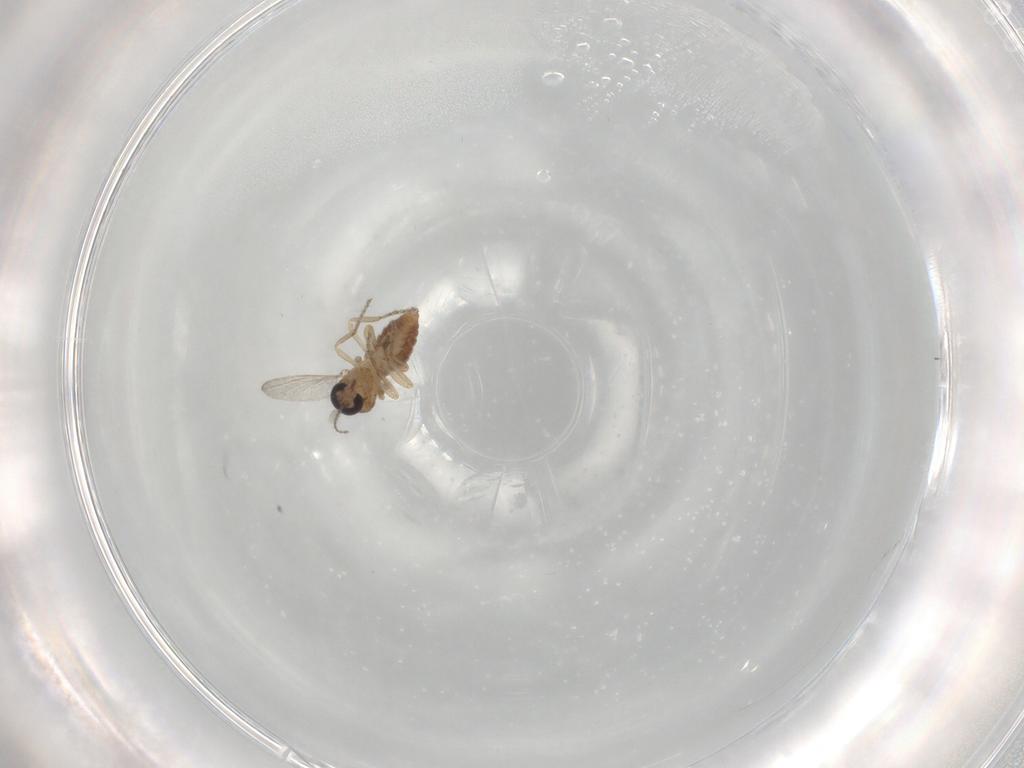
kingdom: Animalia
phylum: Arthropoda
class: Insecta
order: Diptera
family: Ceratopogonidae
